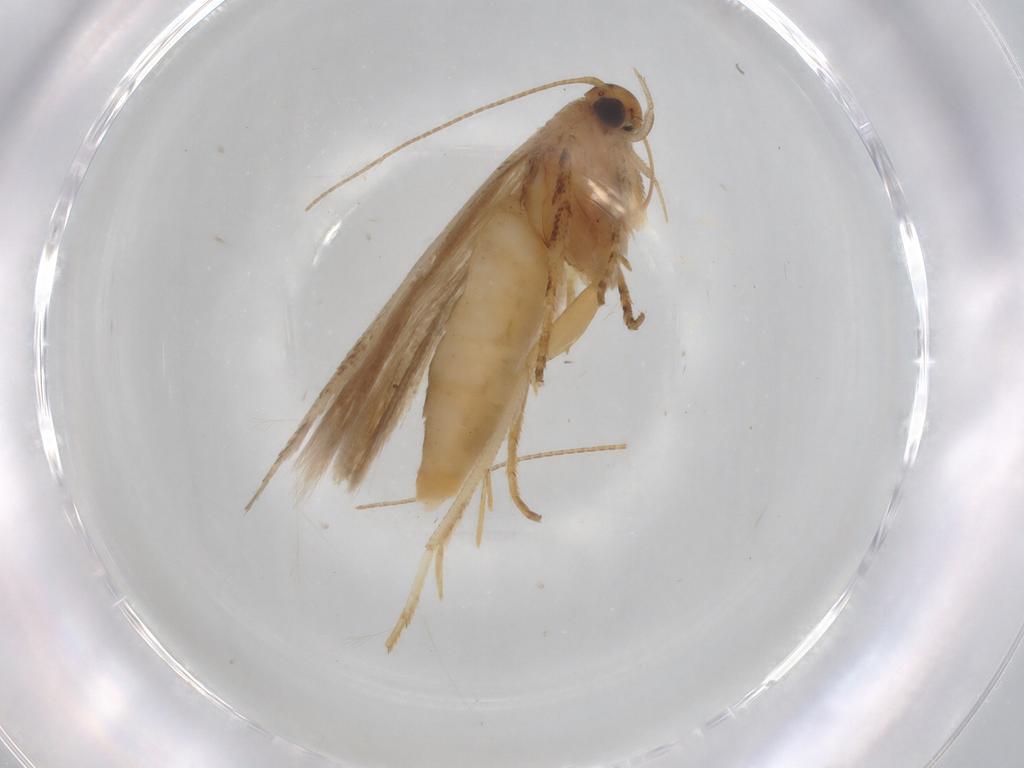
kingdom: Animalia
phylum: Arthropoda
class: Insecta
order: Lepidoptera
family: Gelechiidae
